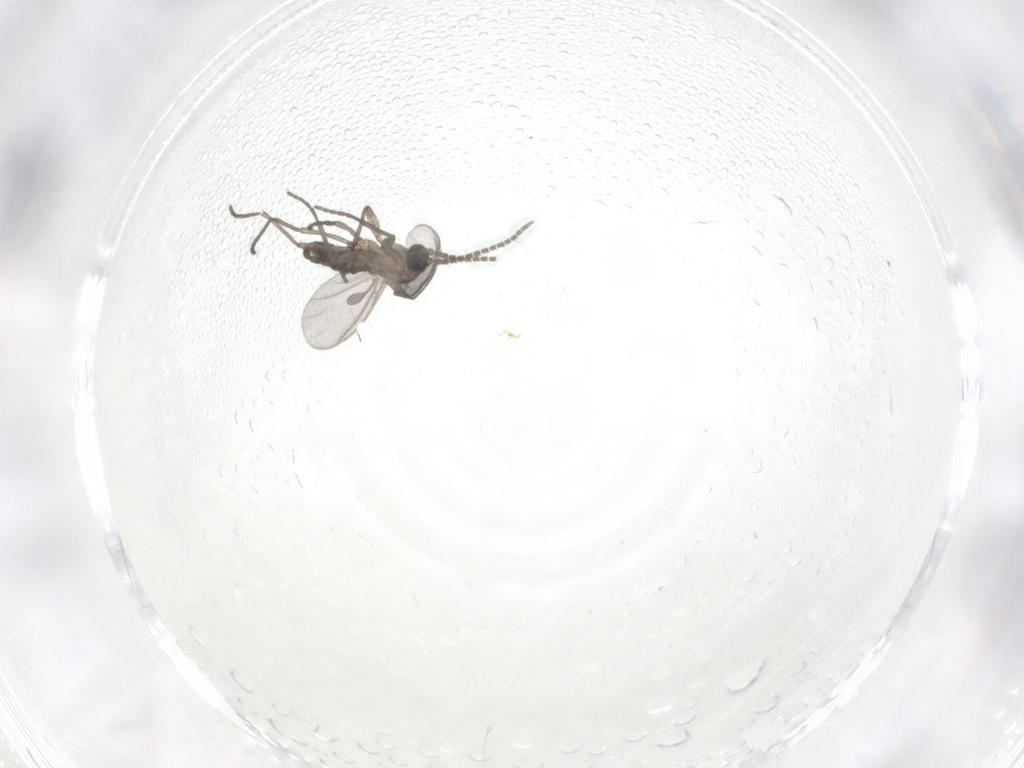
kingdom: Animalia
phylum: Arthropoda
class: Insecta
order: Diptera
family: Sciaridae
